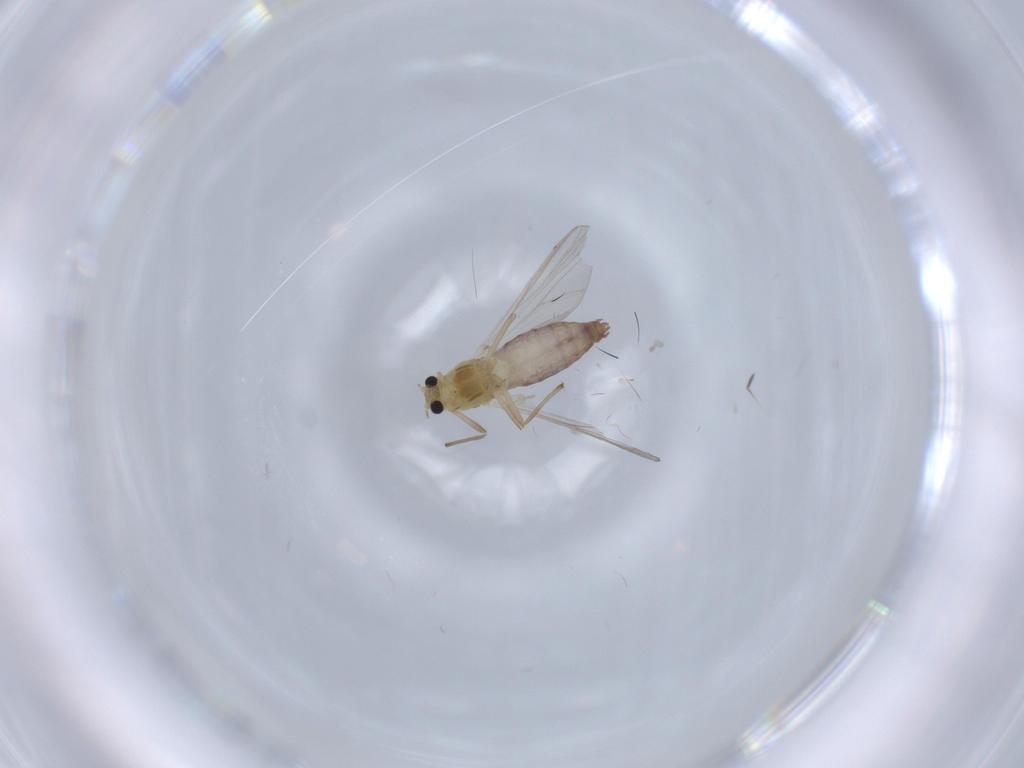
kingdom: Animalia
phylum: Arthropoda
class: Insecta
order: Diptera
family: Chironomidae
